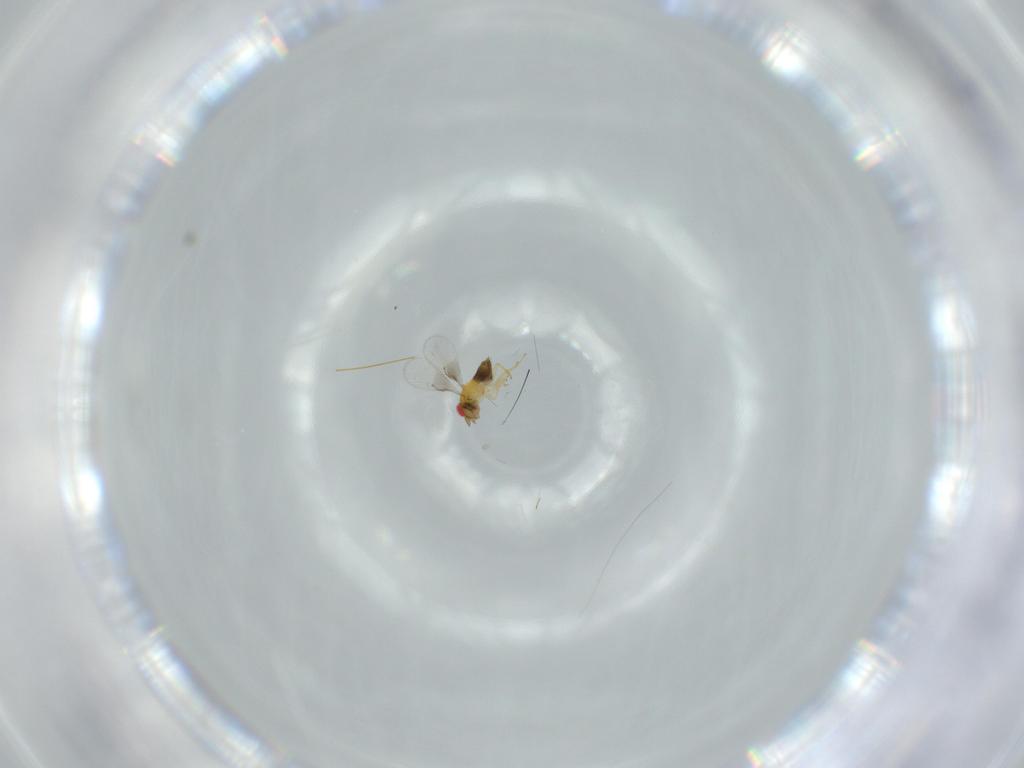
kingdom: Animalia
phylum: Arthropoda
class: Insecta
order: Hymenoptera
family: Trichogrammatidae
